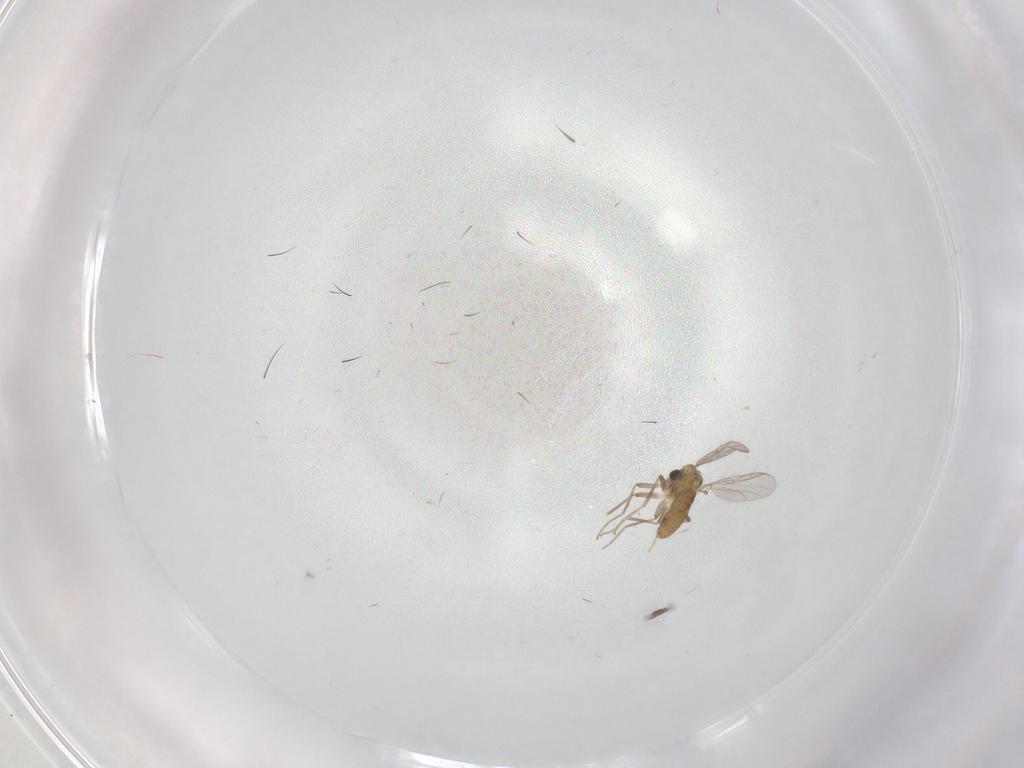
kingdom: Animalia
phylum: Arthropoda
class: Insecta
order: Diptera
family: Chironomidae
